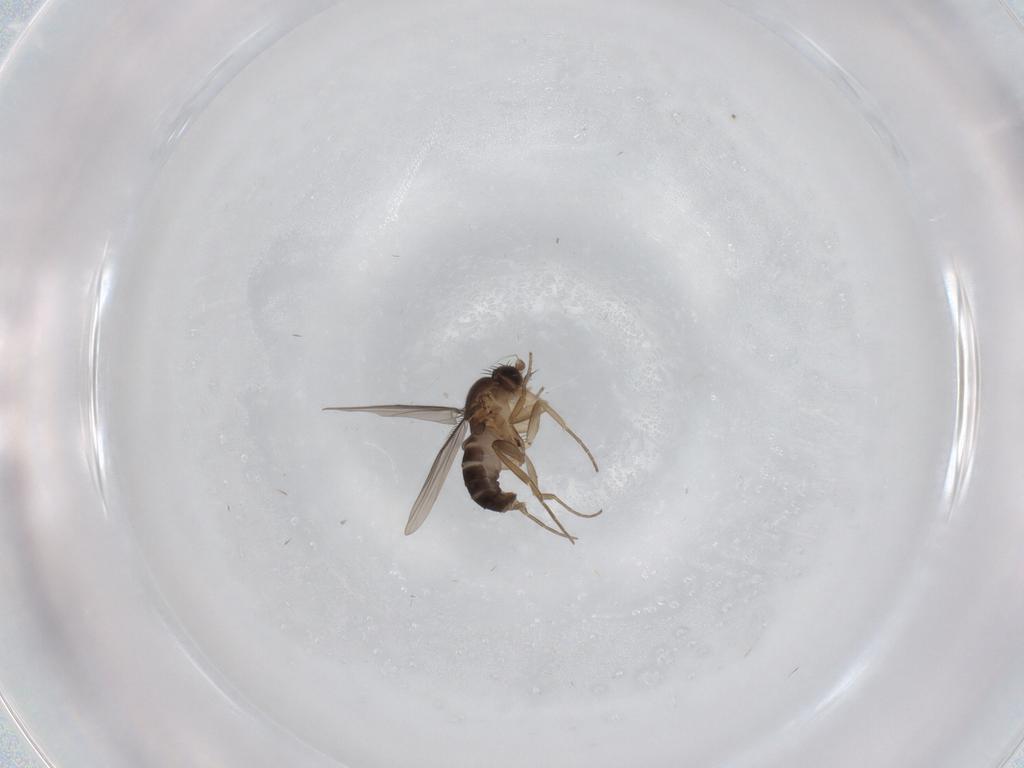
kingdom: Animalia
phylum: Arthropoda
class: Insecta
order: Diptera
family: Cecidomyiidae
